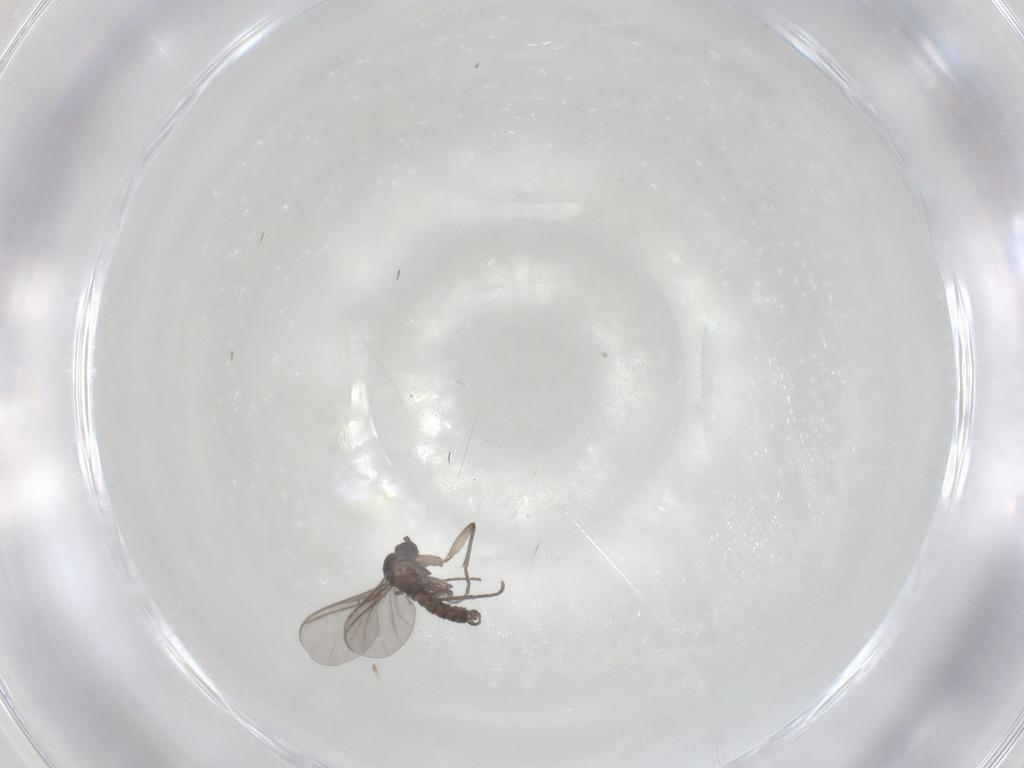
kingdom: Animalia
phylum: Arthropoda
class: Insecta
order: Diptera
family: Sciaridae
